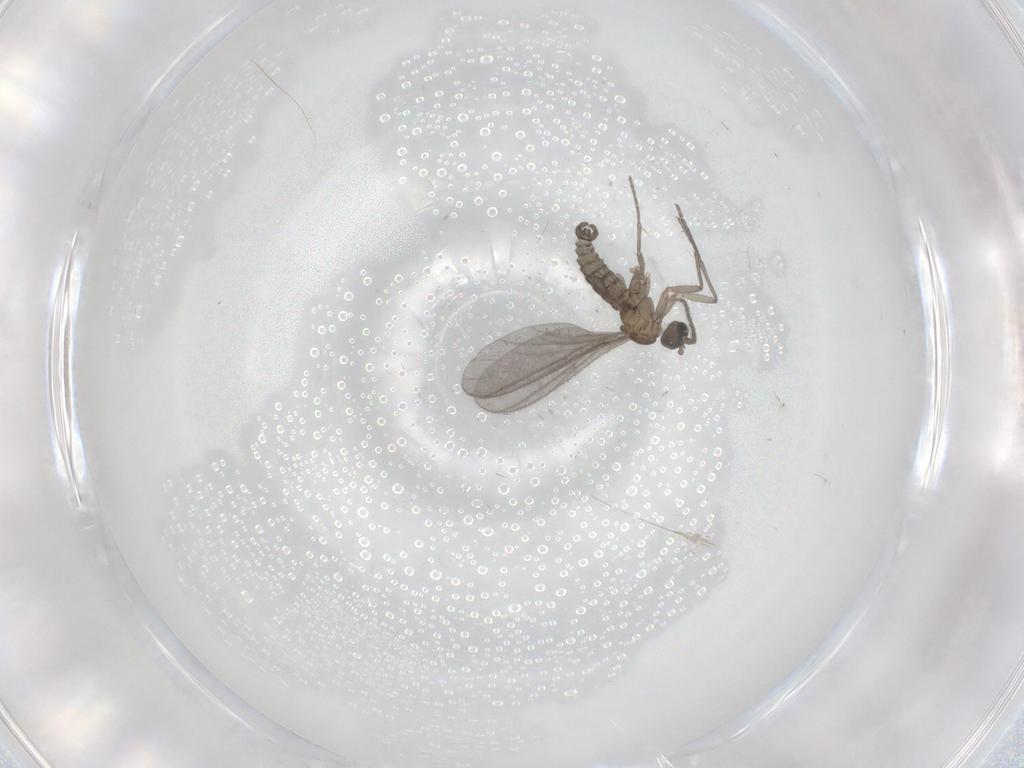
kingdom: Animalia
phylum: Arthropoda
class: Insecta
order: Diptera
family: Sciaridae
